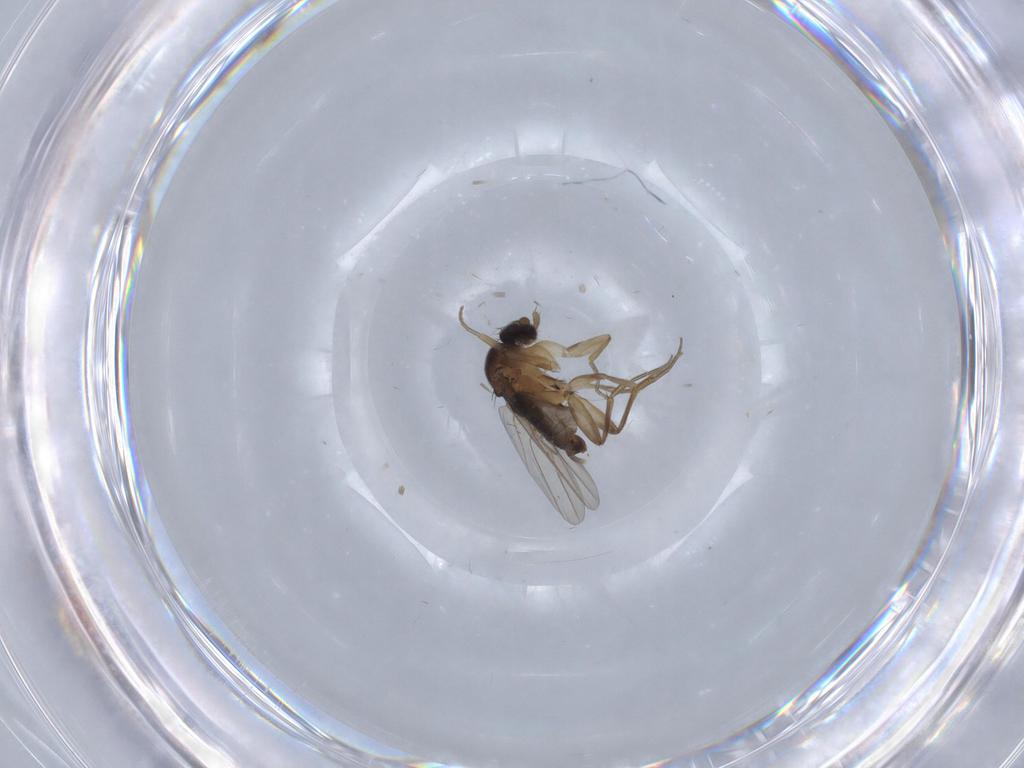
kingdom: Animalia
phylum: Arthropoda
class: Insecta
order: Diptera
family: Phoridae
